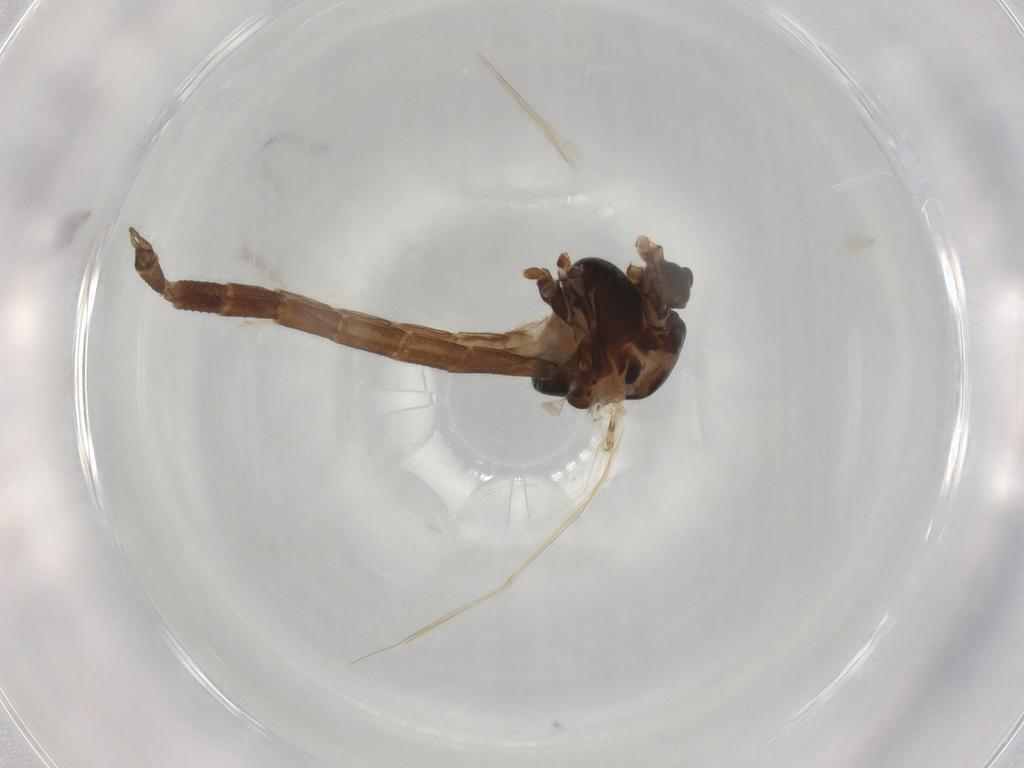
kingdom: Animalia
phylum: Arthropoda
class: Insecta
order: Diptera
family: Chironomidae
